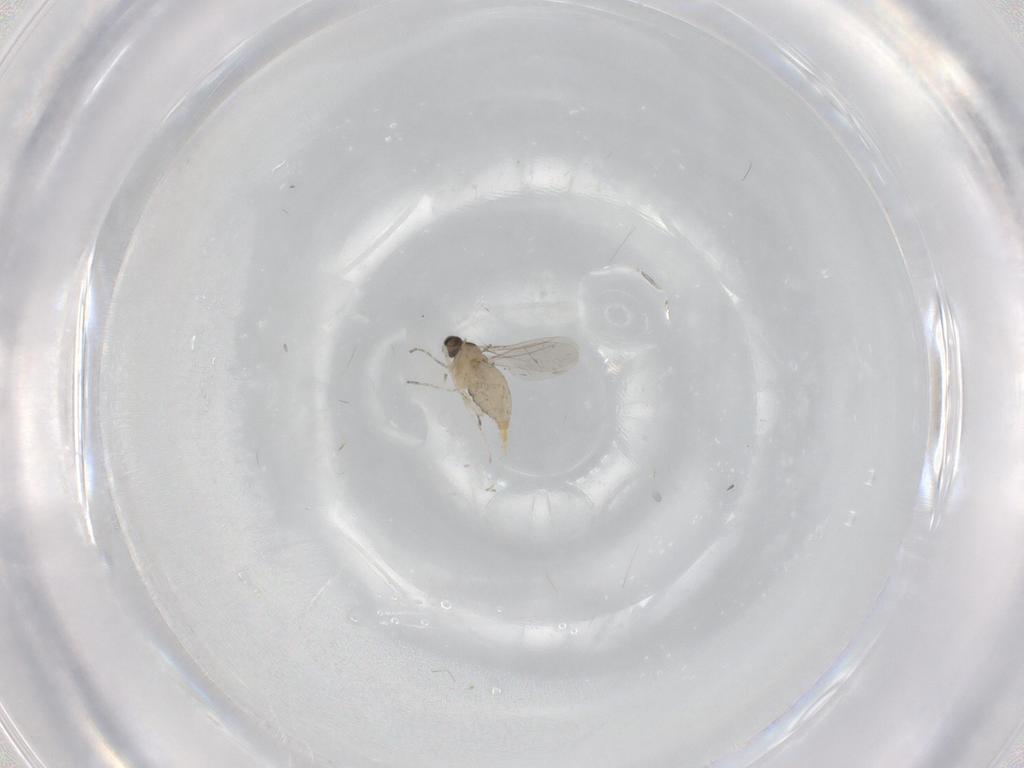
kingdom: Animalia
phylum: Arthropoda
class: Insecta
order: Diptera
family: Cecidomyiidae
